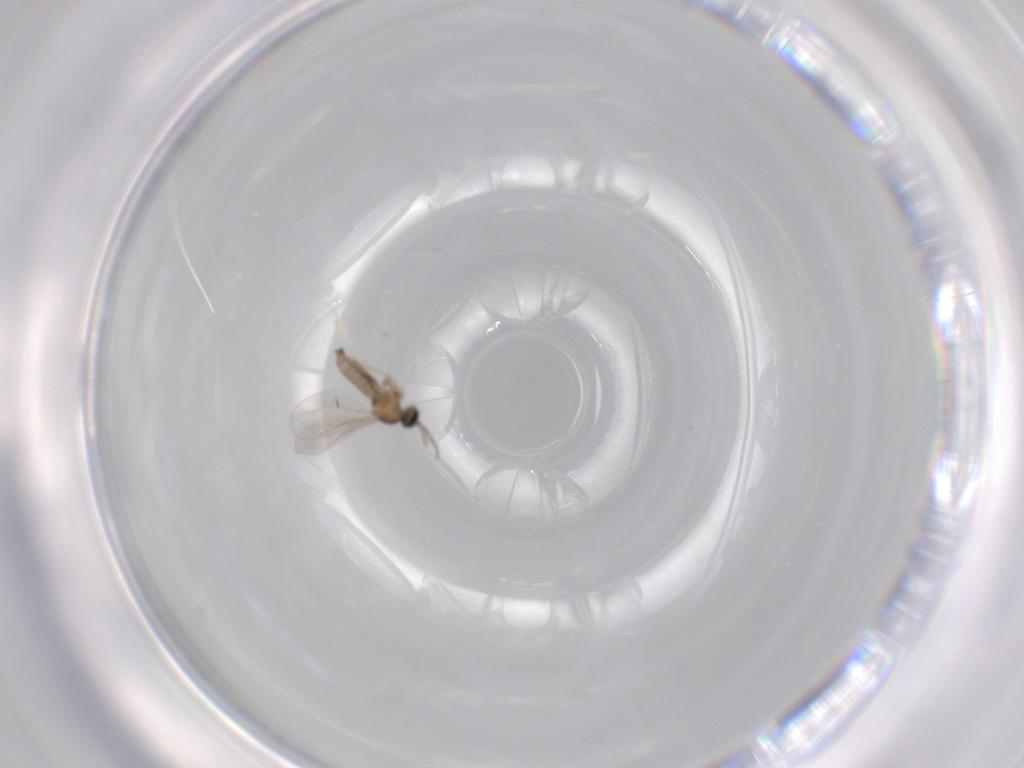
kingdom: Animalia
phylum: Arthropoda
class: Insecta
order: Diptera
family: Cecidomyiidae
